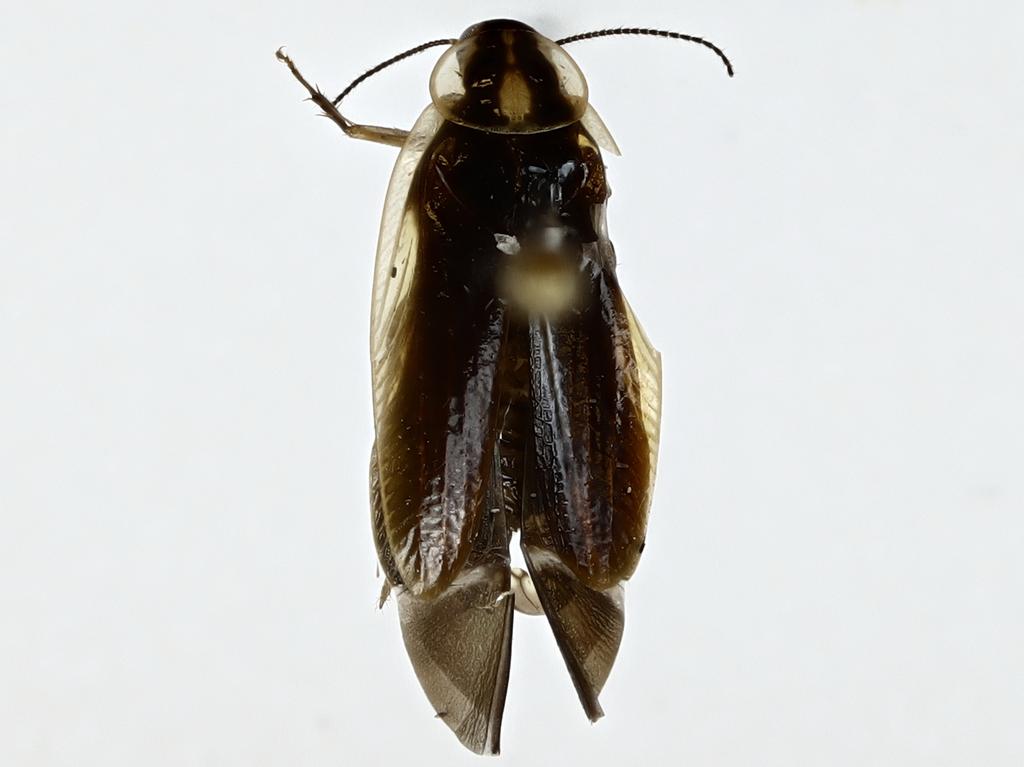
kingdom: Animalia
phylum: Arthropoda
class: Insecta
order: Blattodea
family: Ectobiidae
